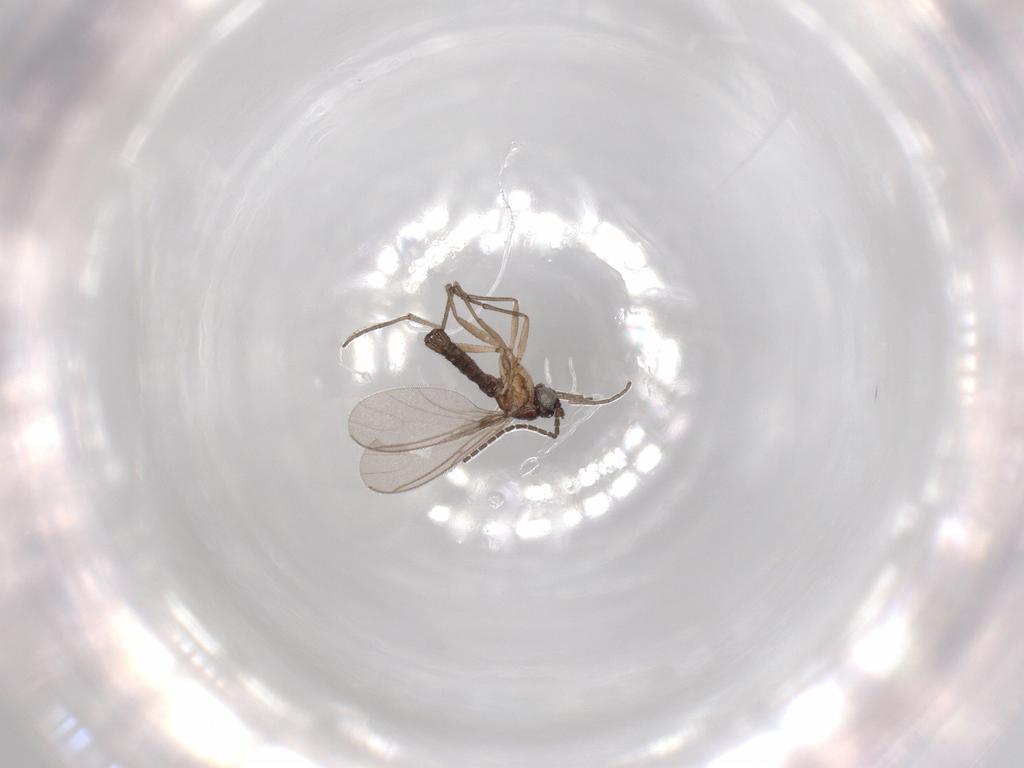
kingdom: Animalia
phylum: Arthropoda
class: Insecta
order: Diptera
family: Sciaridae
